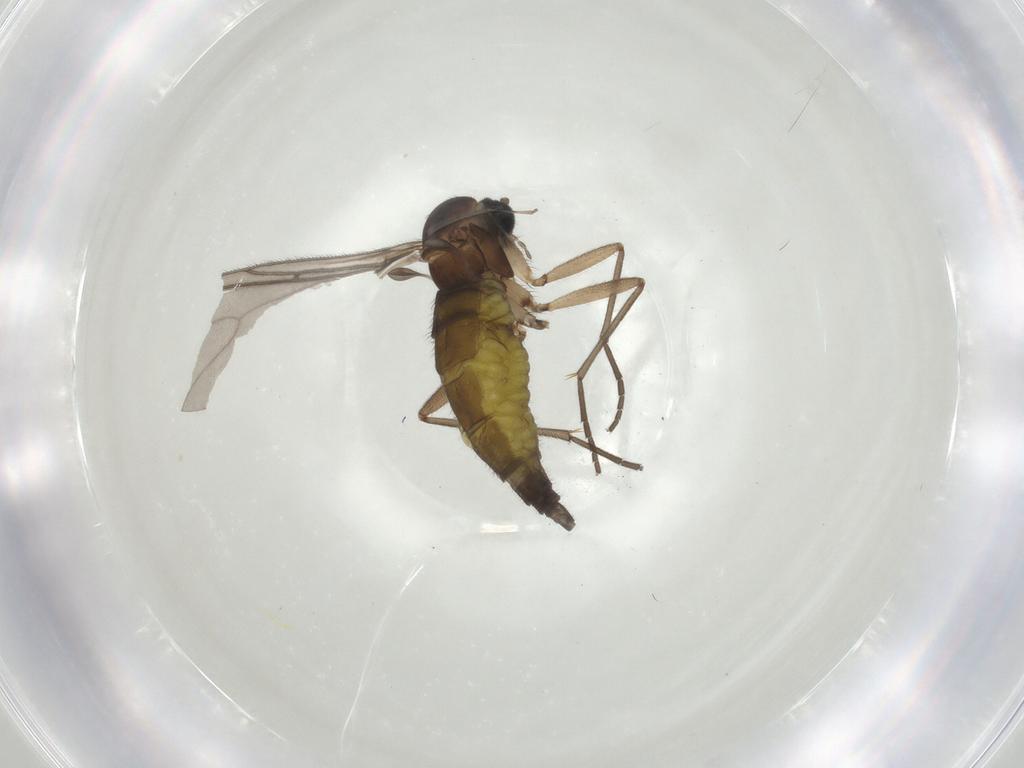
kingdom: Animalia
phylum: Arthropoda
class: Insecta
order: Diptera
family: Sciaridae
